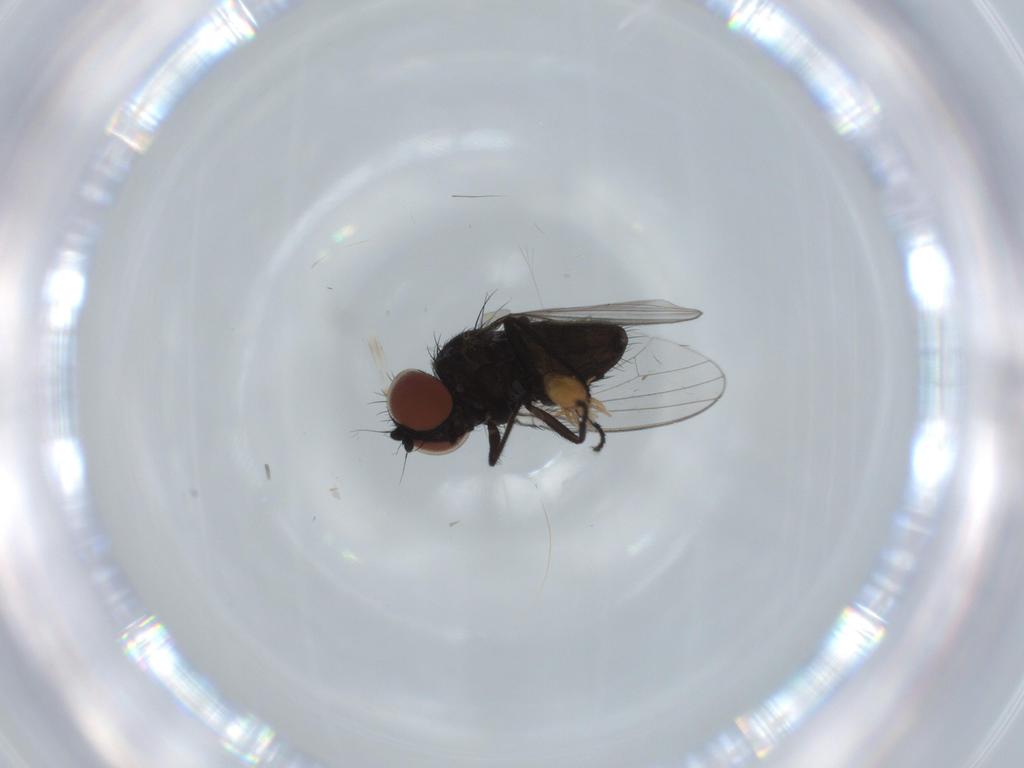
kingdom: Animalia
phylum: Arthropoda
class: Insecta
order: Diptera
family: Milichiidae
